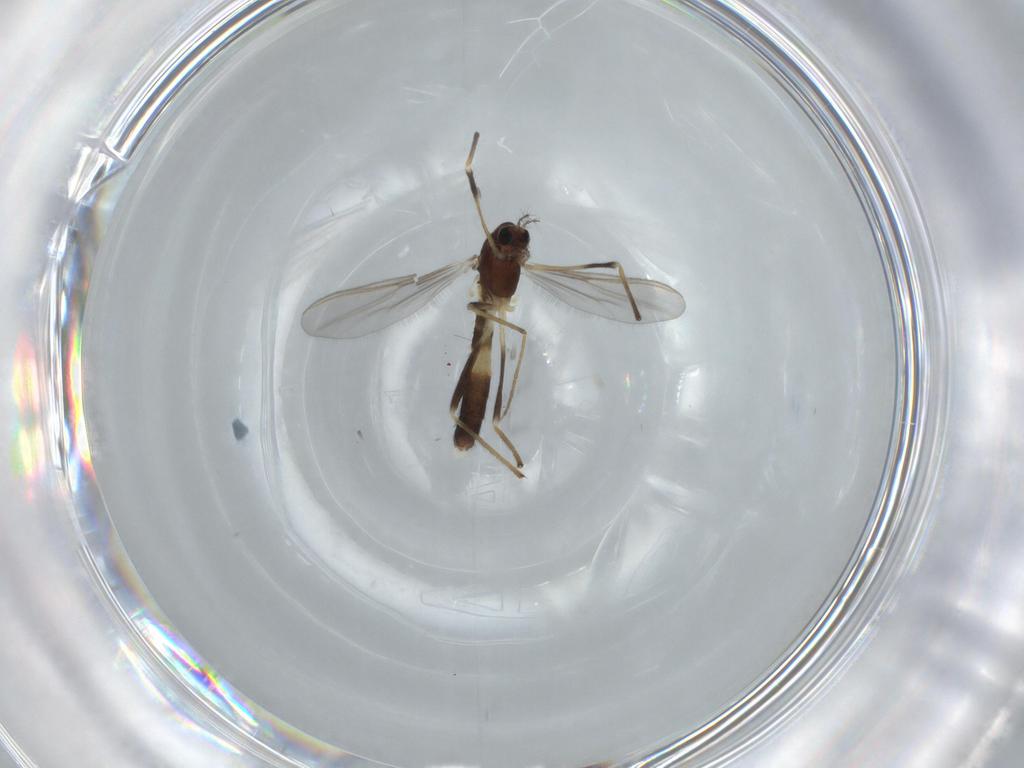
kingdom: Animalia
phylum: Arthropoda
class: Insecta
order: Diptera
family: Chironomidae
